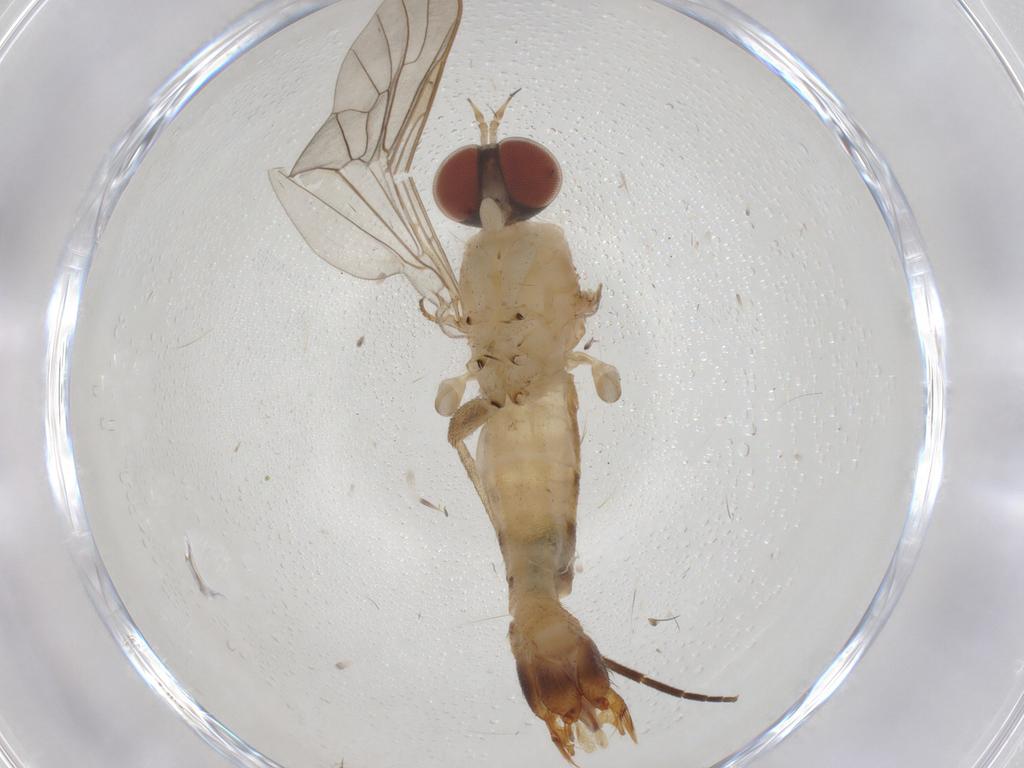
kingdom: Animalia
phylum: Arthropoda
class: Insecta
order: Diptera
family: Apsilocephalidae
